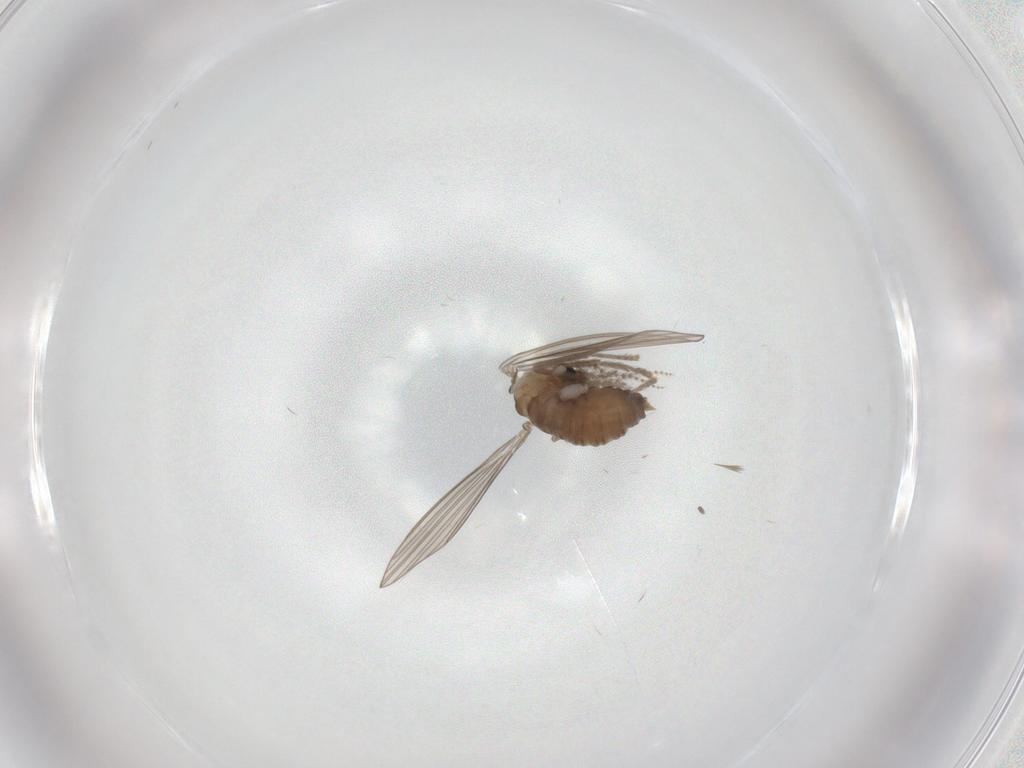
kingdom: Animalia
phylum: Arthropoda
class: Insecta
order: Diptera
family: Psychodidae
